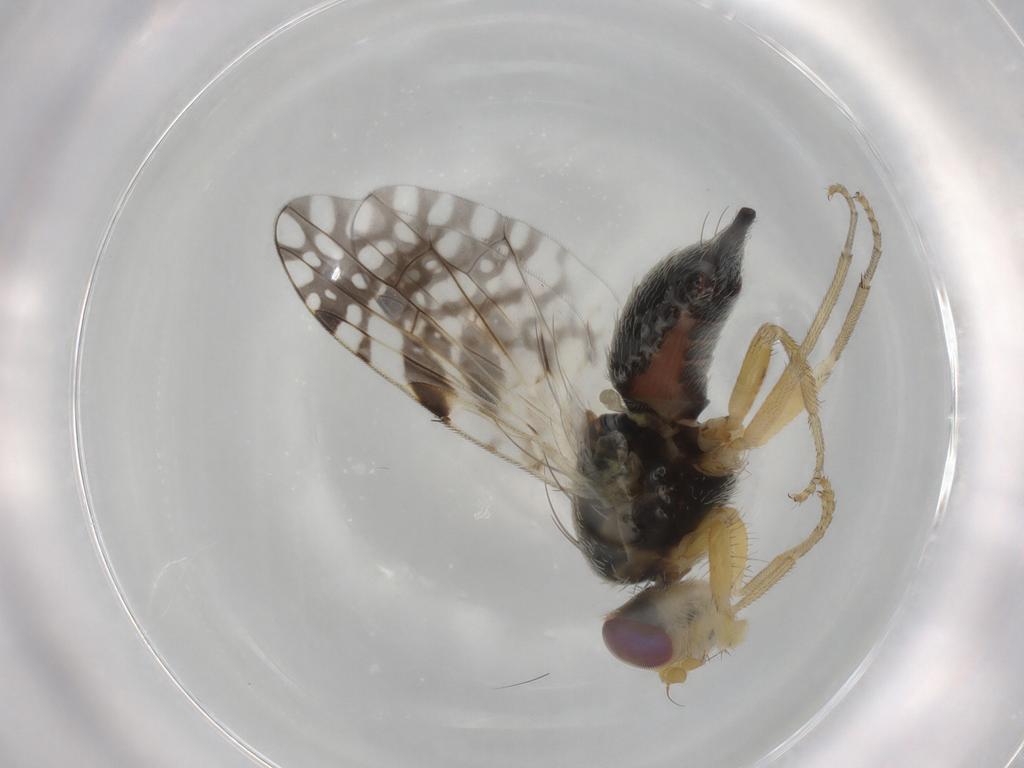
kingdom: Animalia
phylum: Arthropoda
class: Insecta
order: Diptera
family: Tephritidae
